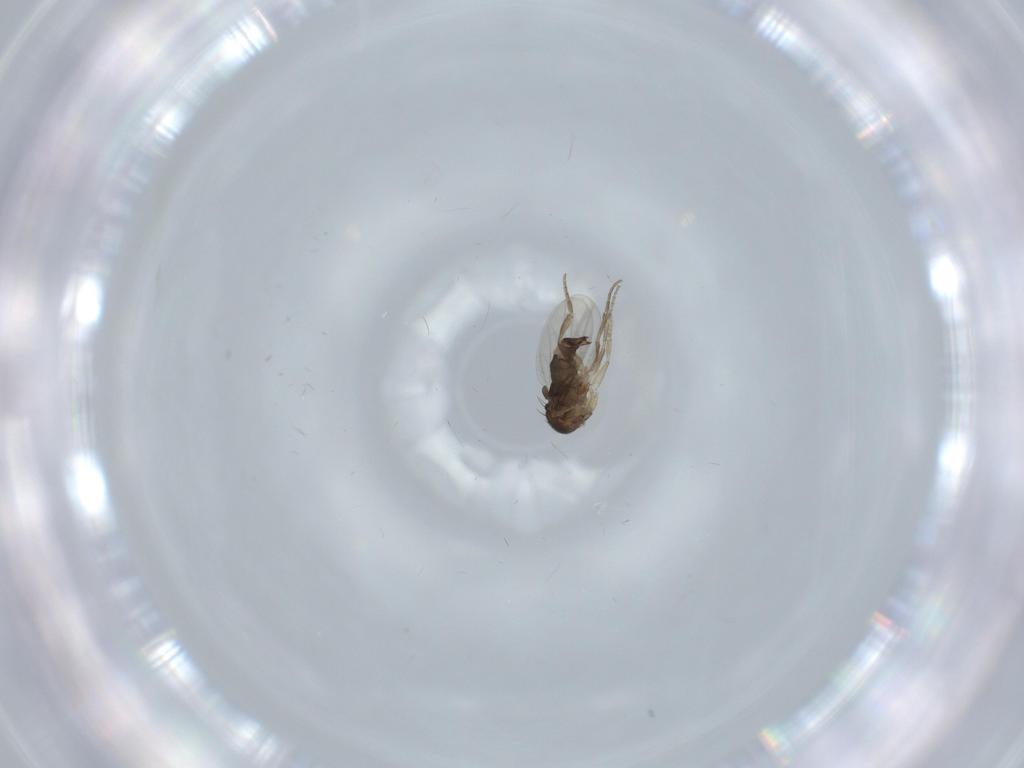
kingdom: Animalia
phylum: Arthropoda
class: Insecta
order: Diptera
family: Phoridae
